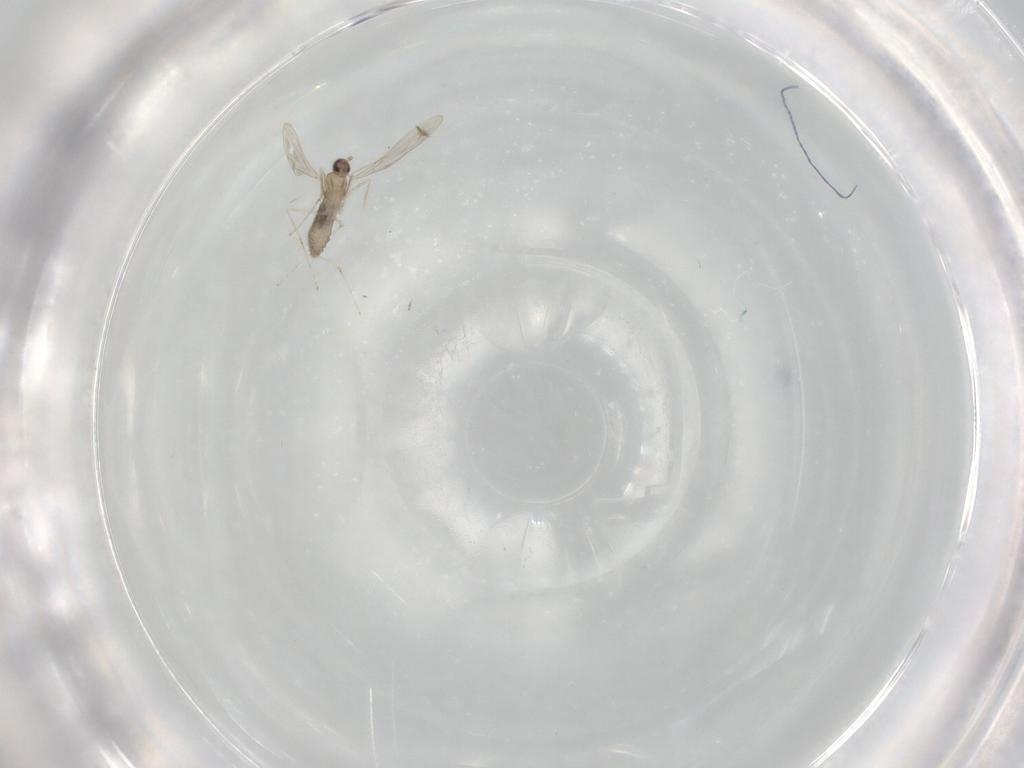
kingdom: Animalia
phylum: Arthropoda
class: Insecta
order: Diptera
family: Cecidomyiidae
